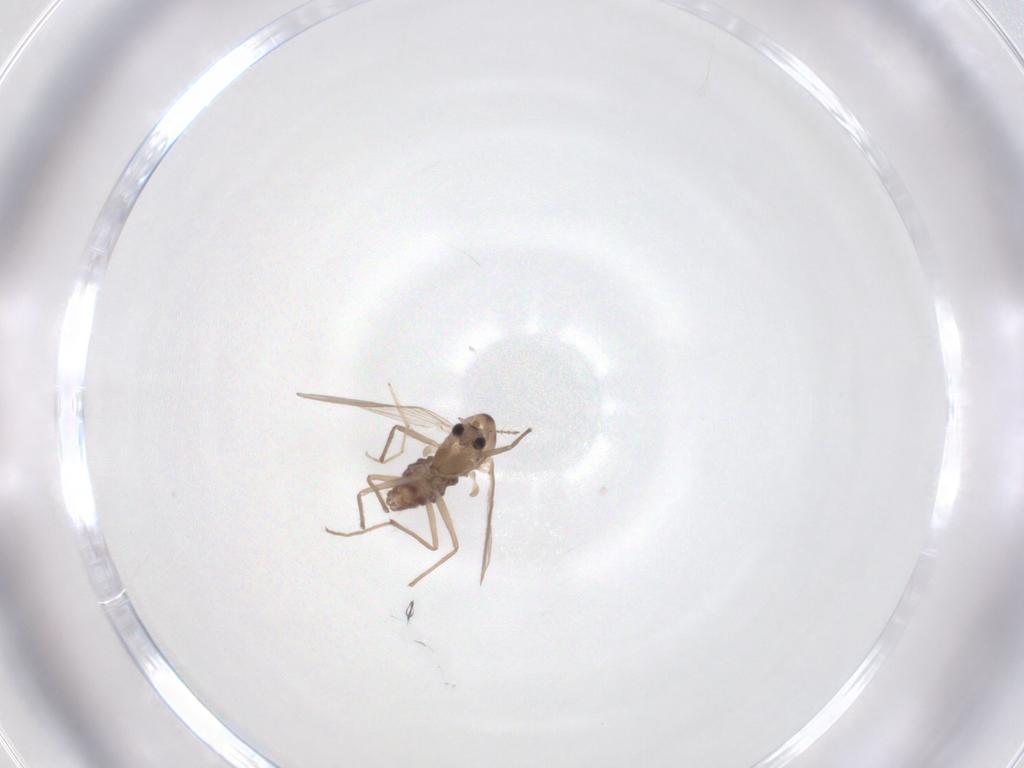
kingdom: Animalia
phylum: Arthropoda
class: Insecta
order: Diptera
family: Chironomidae
